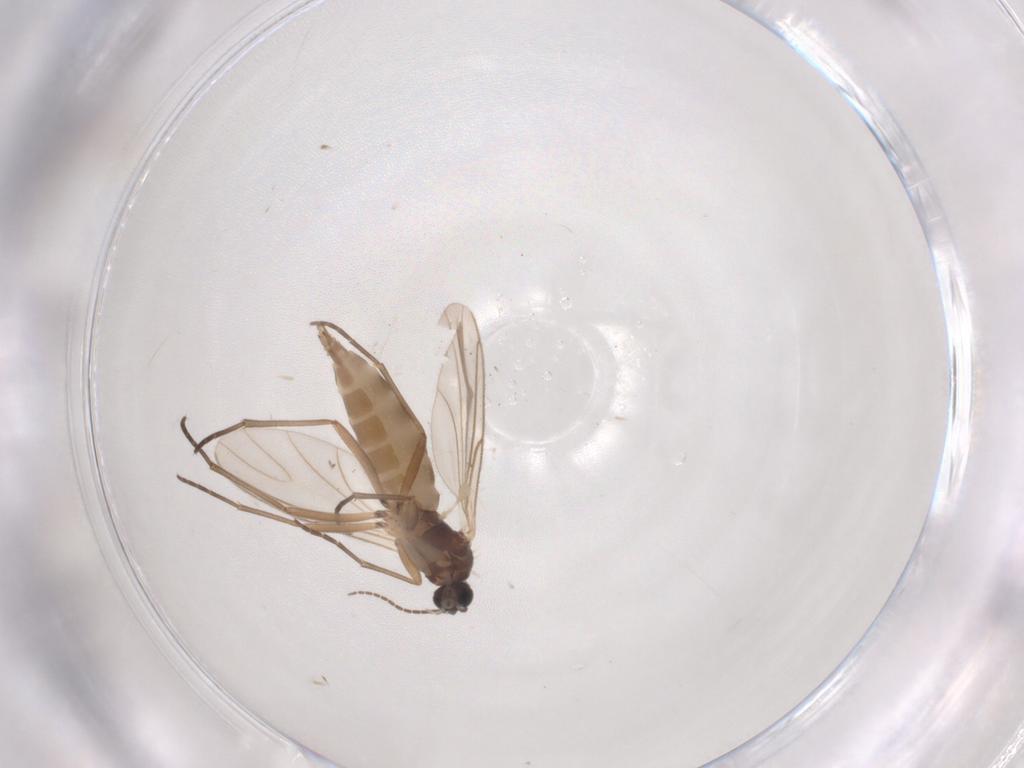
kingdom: Animalia
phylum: Arthropoda
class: Insecta
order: Diptera
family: Sciaridae
